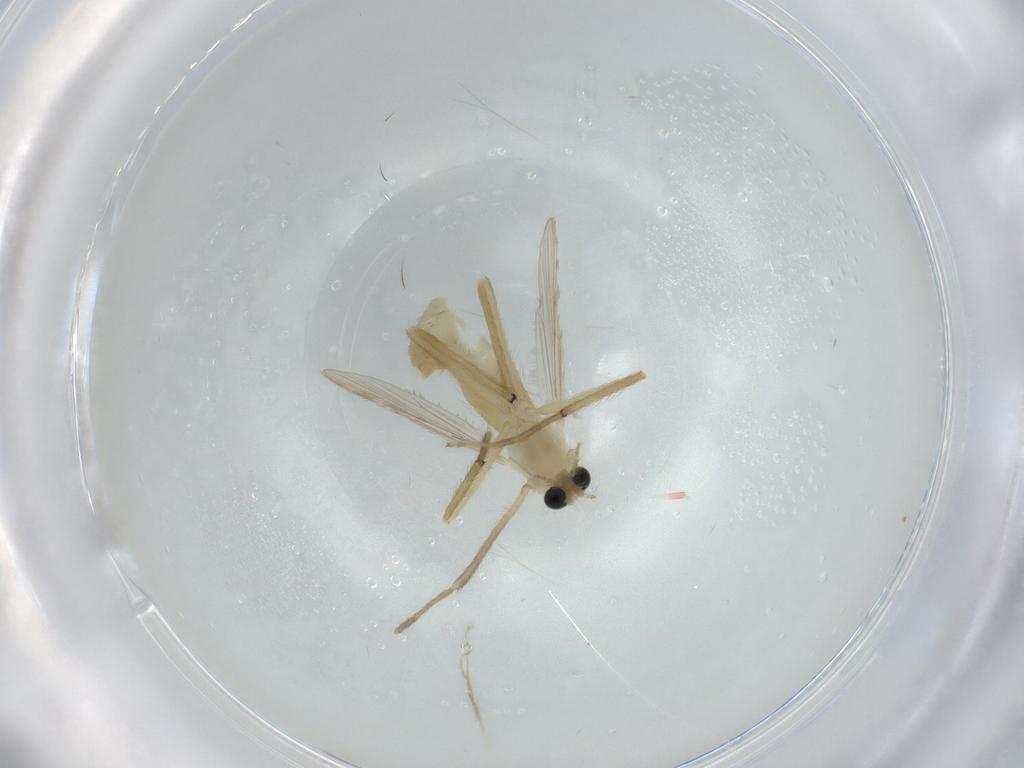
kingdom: Animalia
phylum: Arthropoda
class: Insecta
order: Diptera
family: Chironomidae
